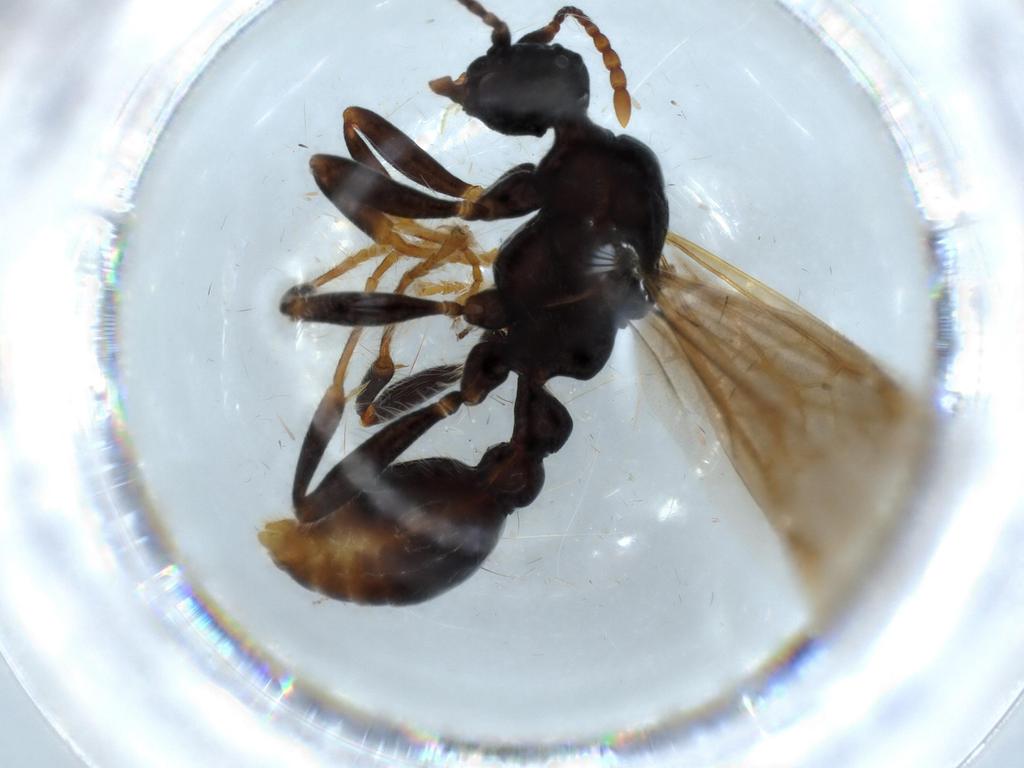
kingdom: Animalia
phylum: Arthropoda
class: Insecta
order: Hymenoptera
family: Formicidae
